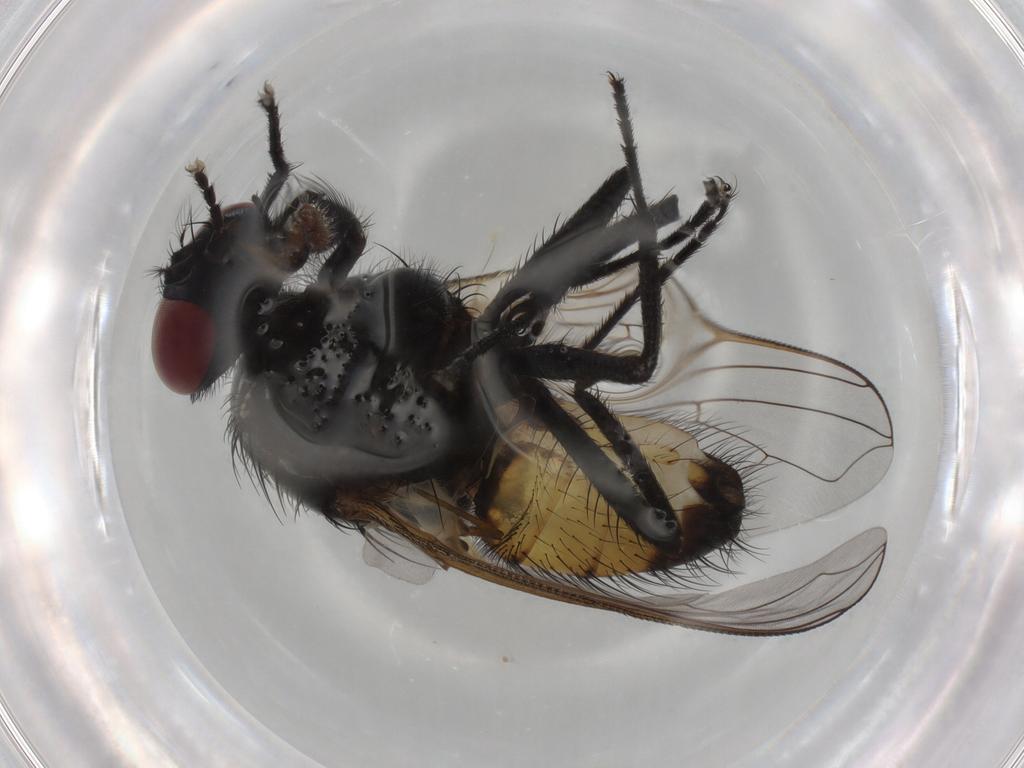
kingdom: Animalia
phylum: Arthropoda
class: Insecta
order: Diptera
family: Muscidae
